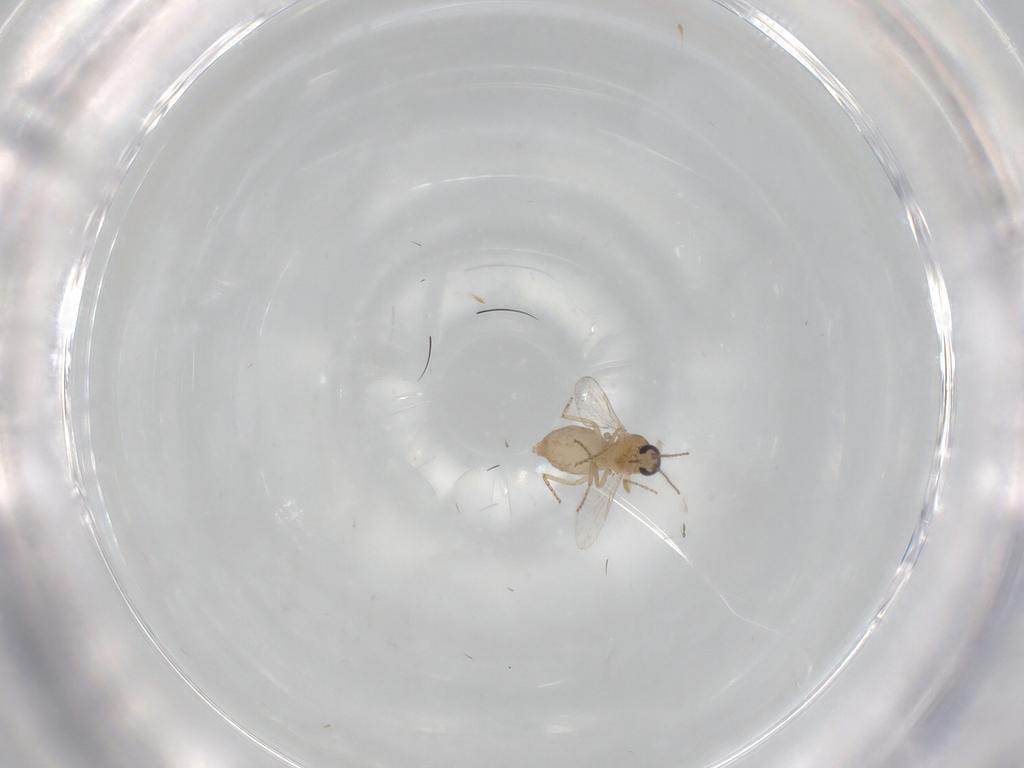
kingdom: Animalia
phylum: Arthropoda
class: Insecta
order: Diptera
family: Ceratopogonidae
